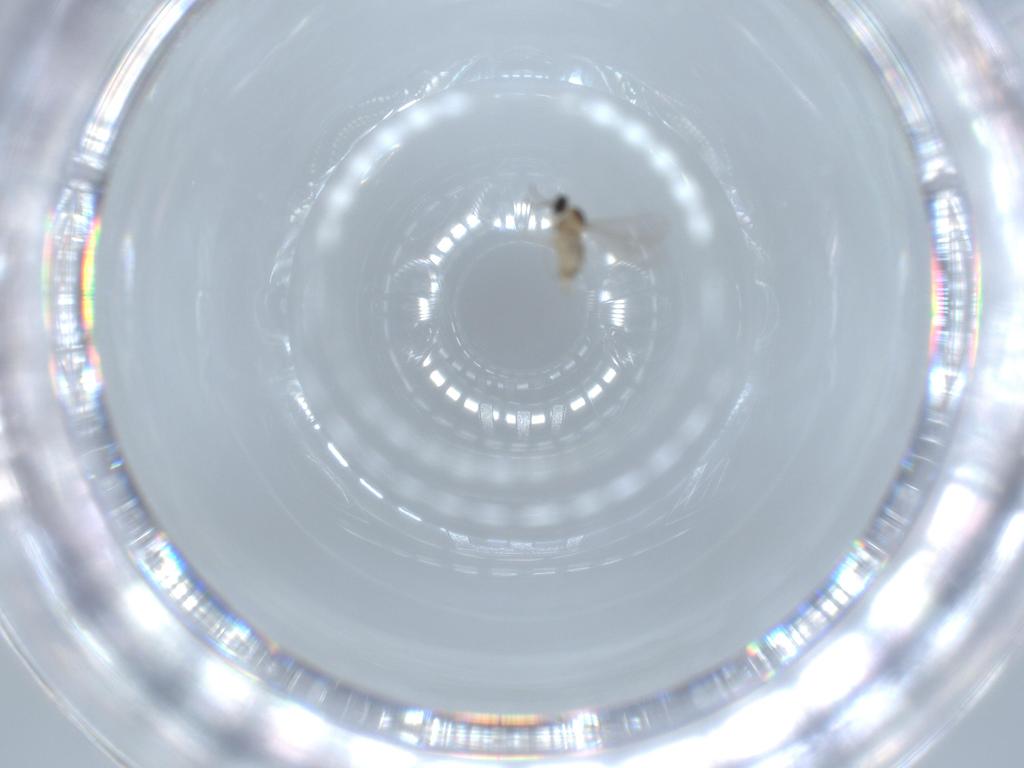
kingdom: Animalia
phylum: Arthropoda
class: Insecta
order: Diptera
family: Cecidomyiidae
